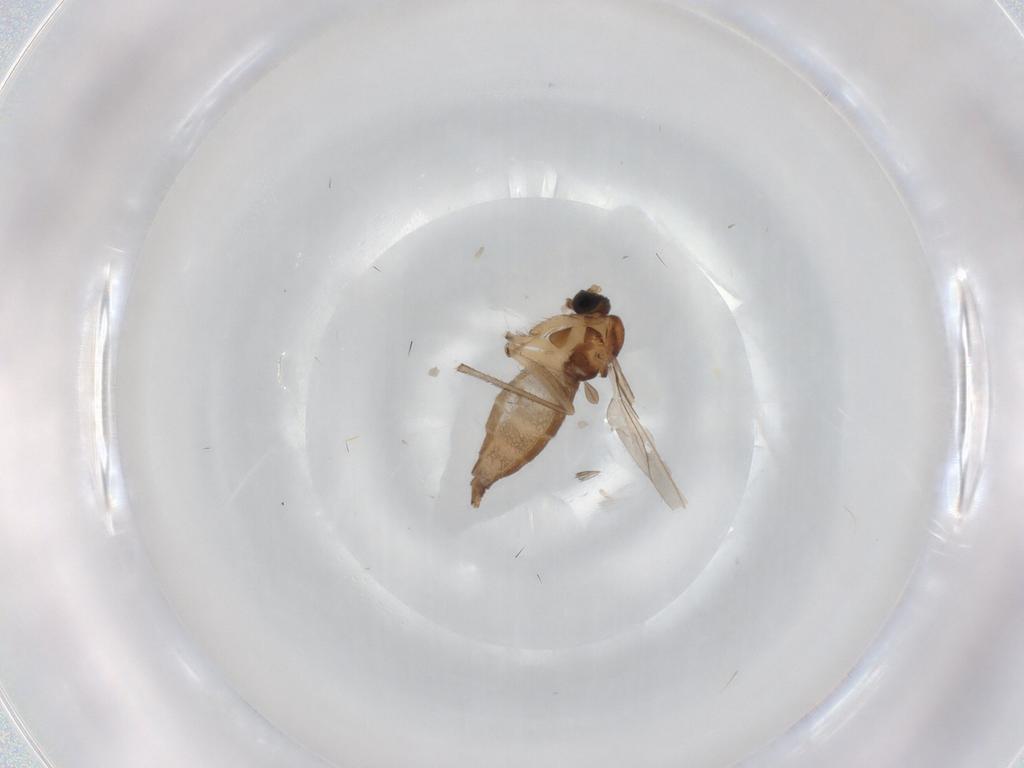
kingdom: Animalia
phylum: Arthropoda
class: Insecta
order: Diptera
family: Sciaridae
